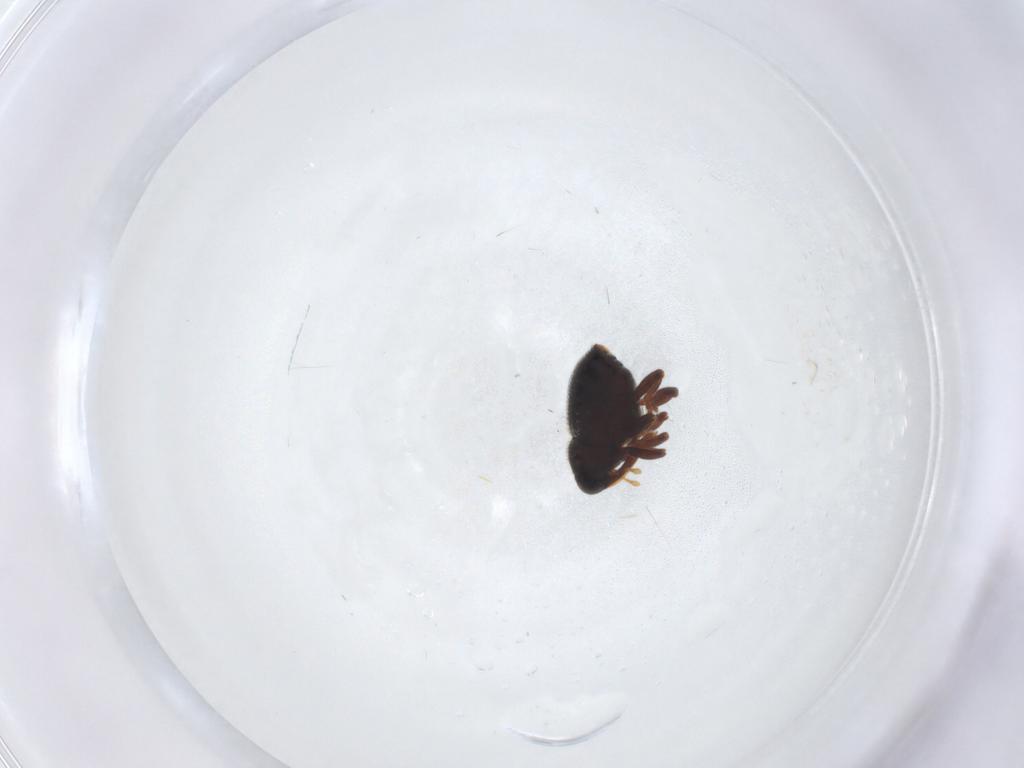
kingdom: Animalia
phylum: Arthropoda
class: Insecta
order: Coleoptera
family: Curculionidae
